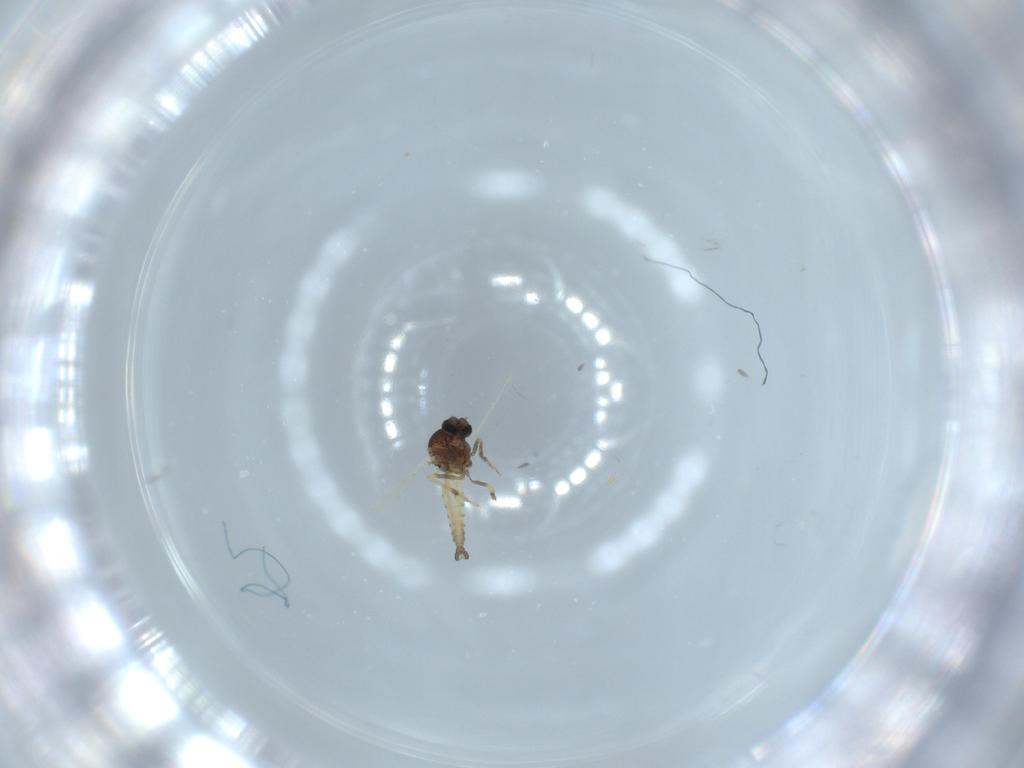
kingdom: Animalia
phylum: Arthropoda
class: Insecta
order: Diptera
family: Ceratopogonidae
